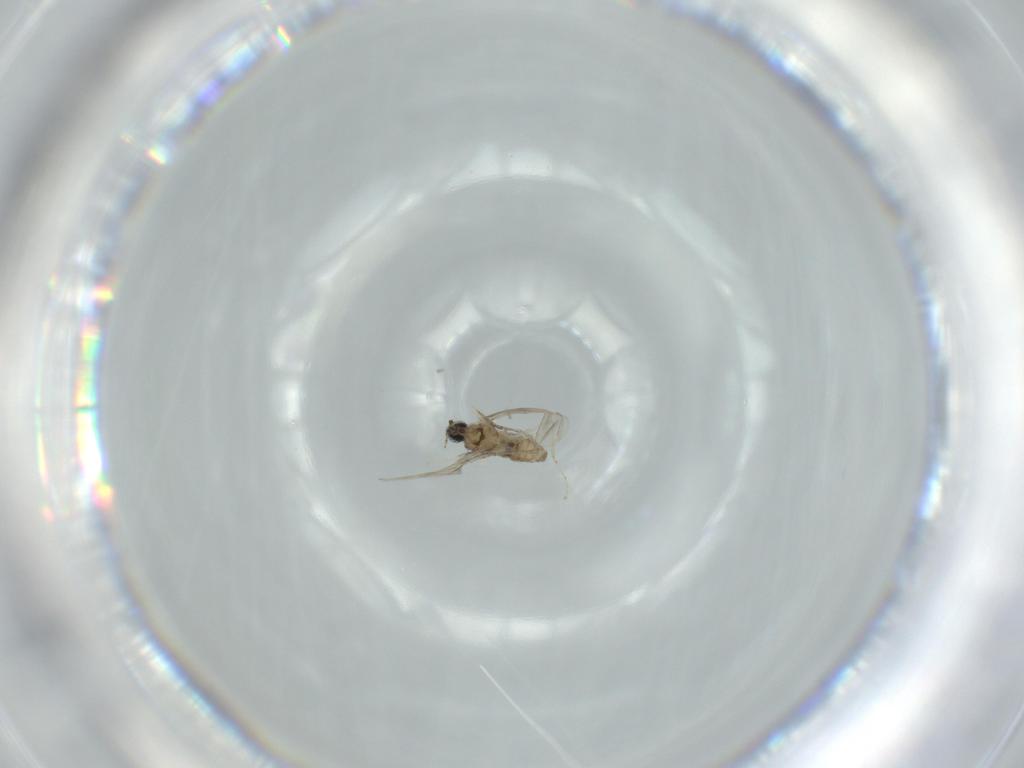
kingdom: Animalia
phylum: Arthropoda
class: Insecta
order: Diptera
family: Cecidomyiidae
